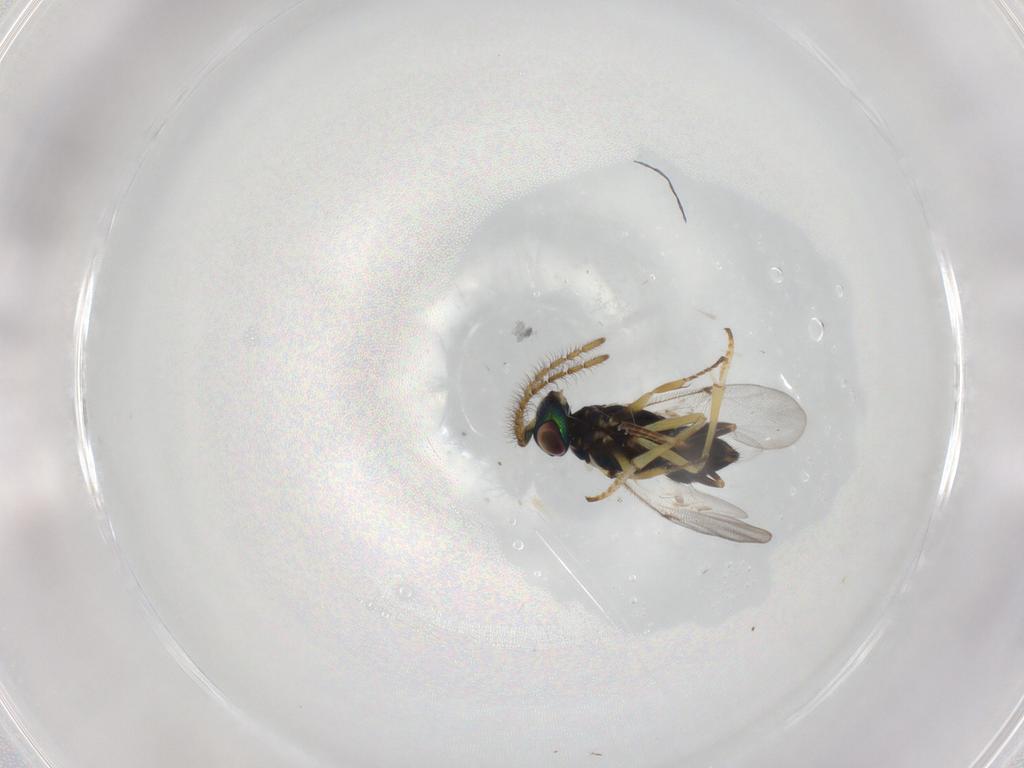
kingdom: Animalia
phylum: Arthropoda
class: Insecta
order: Hymenoptera
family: Encyrtidae
